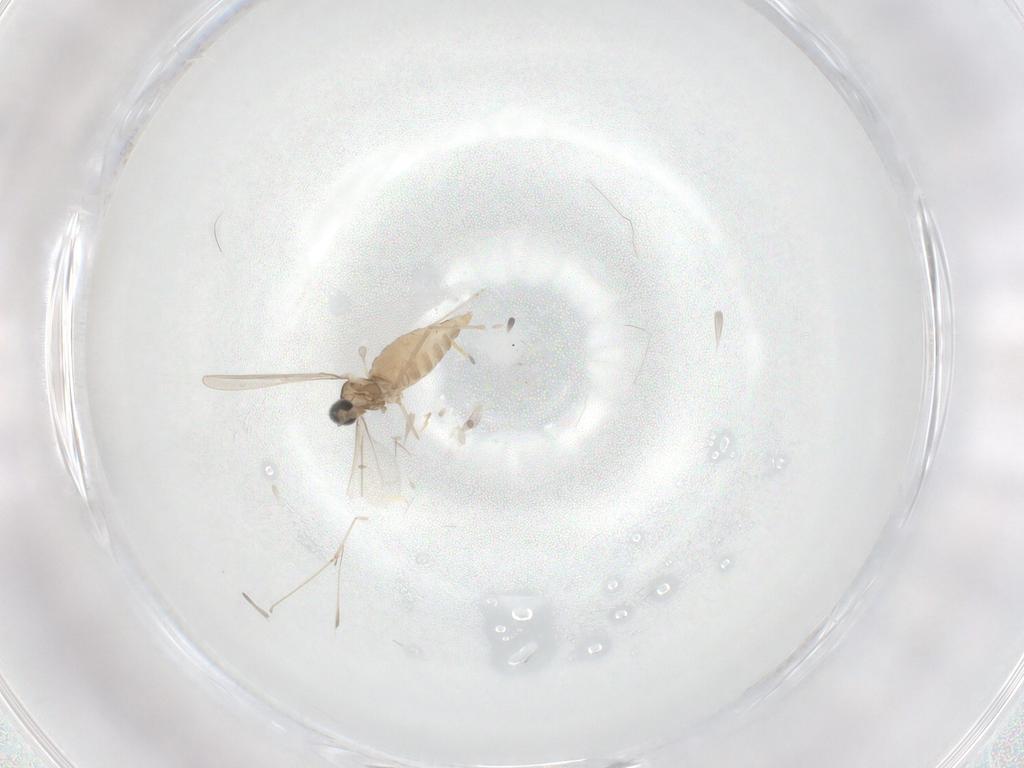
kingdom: Animalia
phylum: Arthropoda
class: Insecta
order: Diptera
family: Cecidomyiidae
